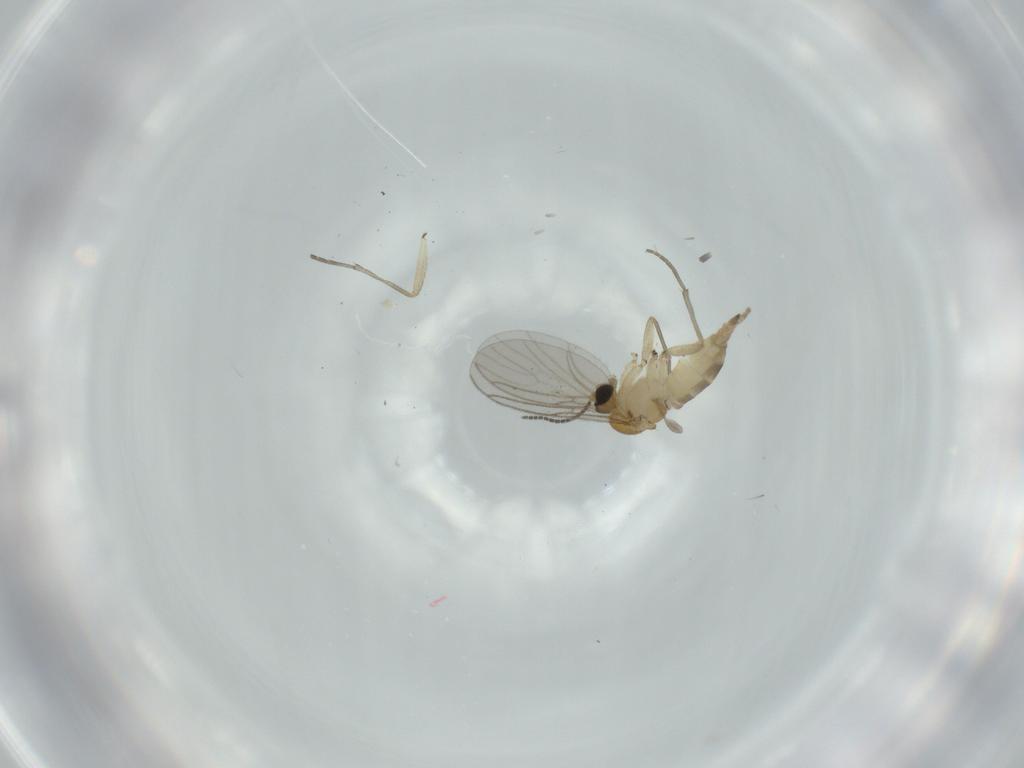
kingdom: Animalia
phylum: Arthropoda
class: Insecta
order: Diptera
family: Sciaridae
